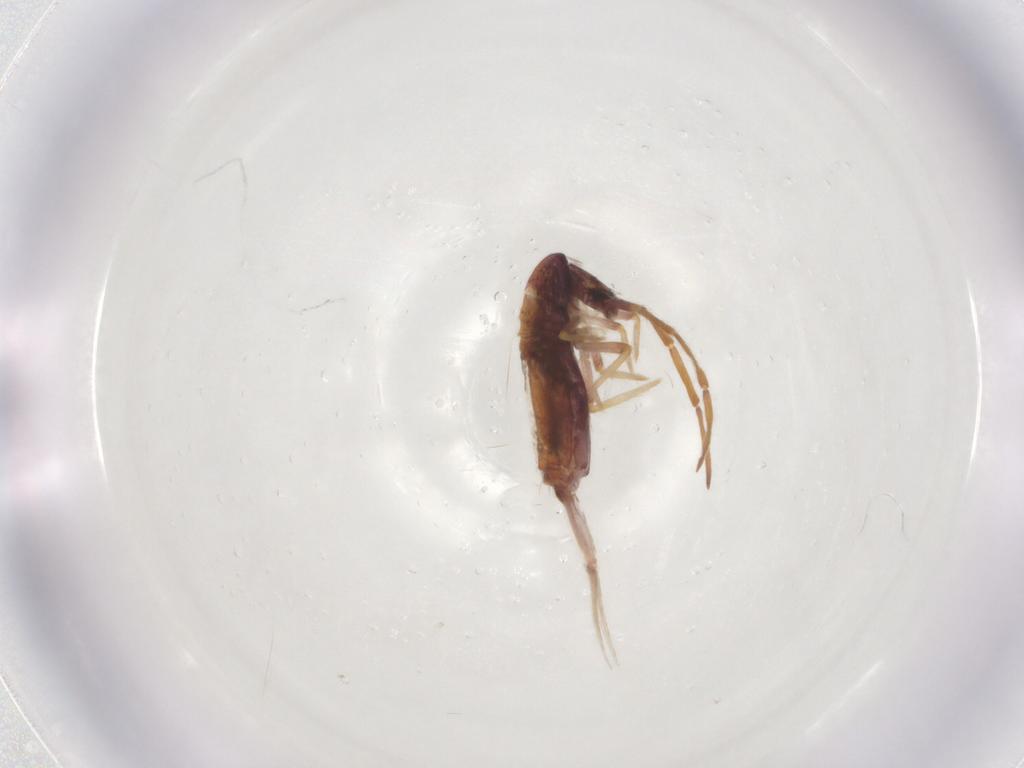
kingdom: Animalia
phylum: Arthropoda
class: Collembola
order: Entomobryomorpha
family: Entomobryidae
